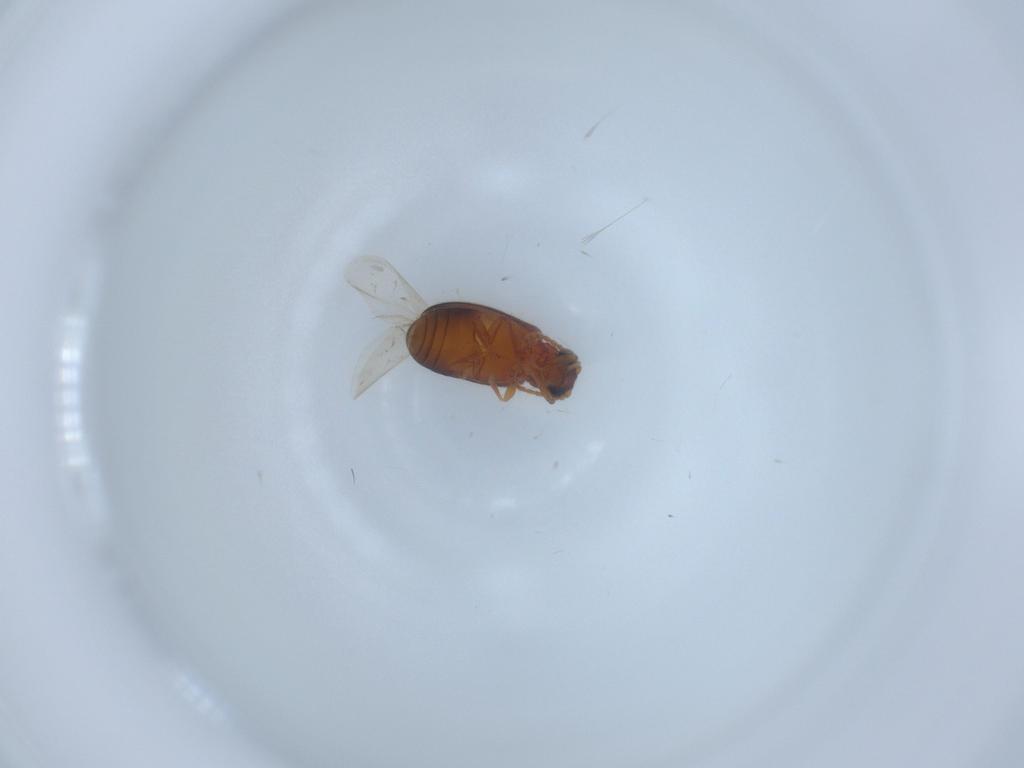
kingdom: Animalia
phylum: Arthropoda
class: Insecta
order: Coleoptera
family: Aderidae
